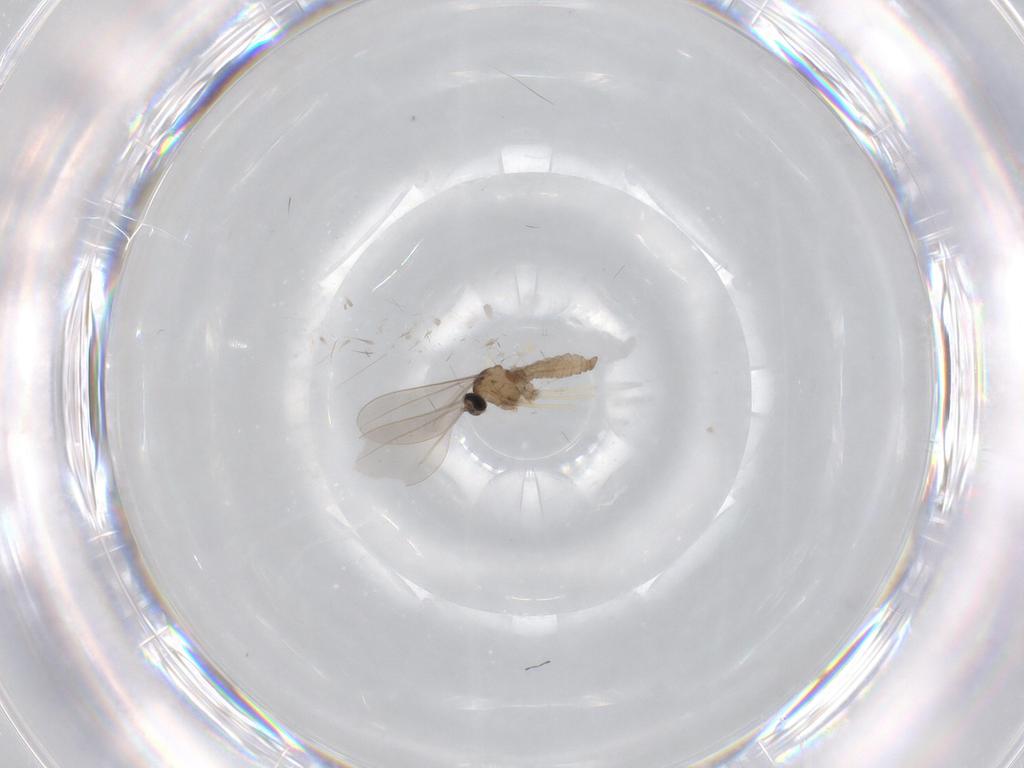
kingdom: Animalia
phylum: Arthropoda
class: Insecta
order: Diptera
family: Chironomidae
